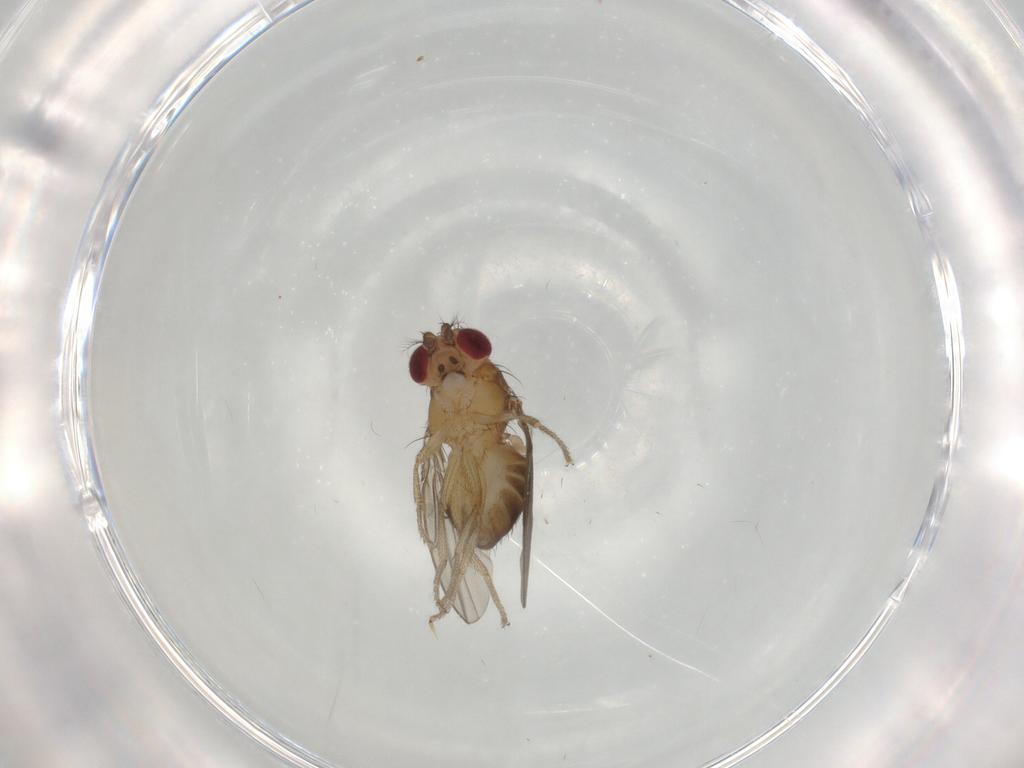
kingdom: Animalia
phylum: Arthropoda
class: Insecta
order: Diptera
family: Drosophilidae
